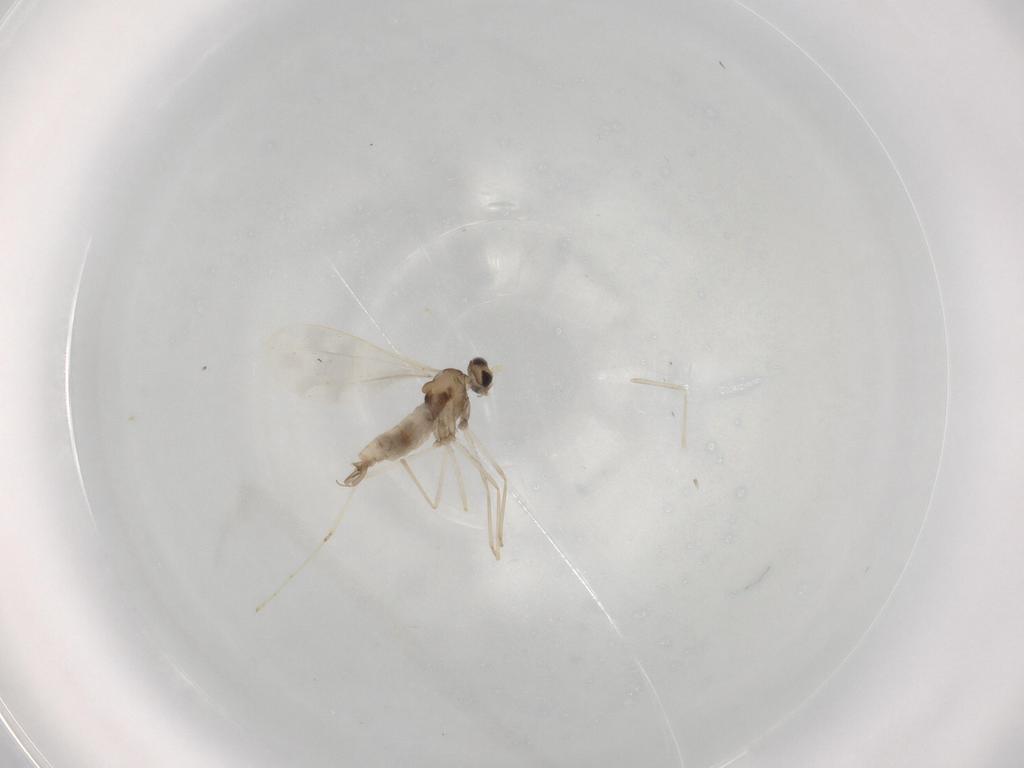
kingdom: Animalia
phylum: Arthropoda
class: Insecta
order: Diptera
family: Cecidomyiidae
